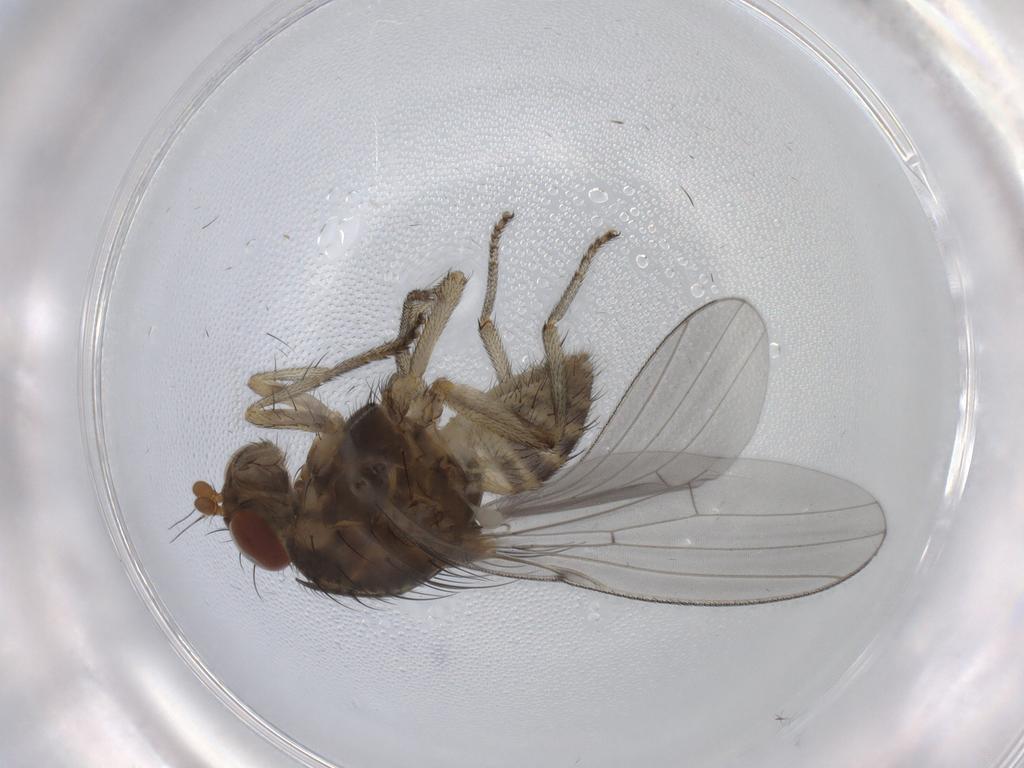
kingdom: Animalia
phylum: Arthropoda
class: Insecta
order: Diptera
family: Lauxaniidae
